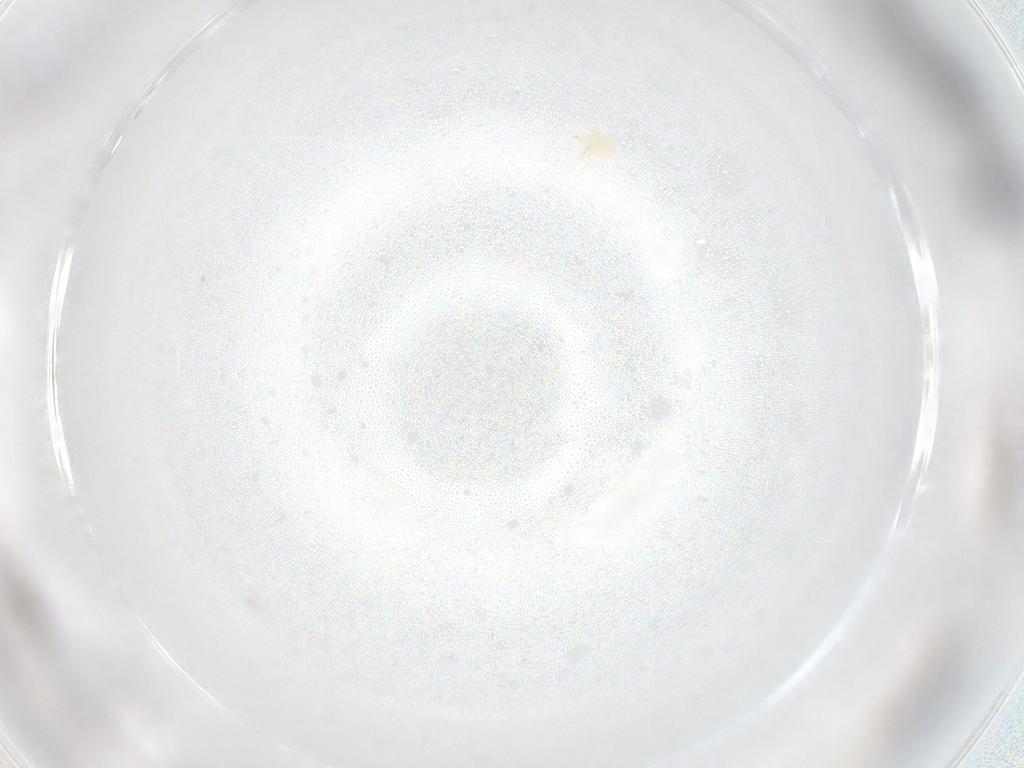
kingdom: Animalia
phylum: Arthropoda
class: Arachnida
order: Trombidiformes
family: Anystidae
